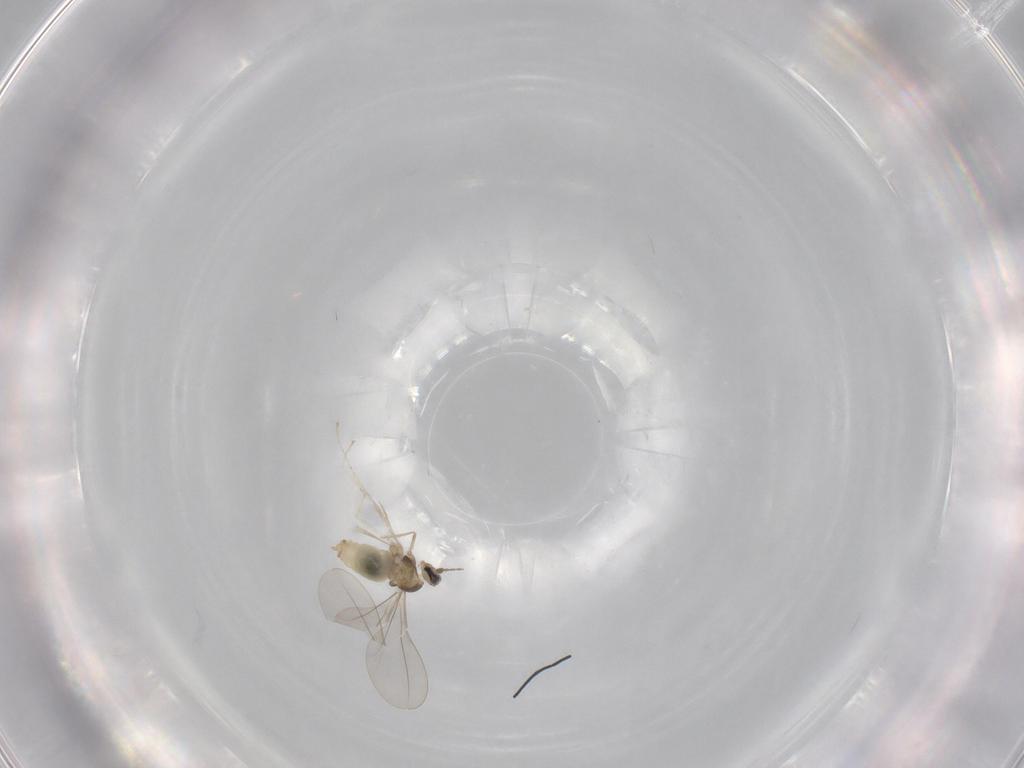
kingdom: Animalia
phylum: Arthropoda
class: Insecta
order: Diptera
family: Cecidomyiidae
